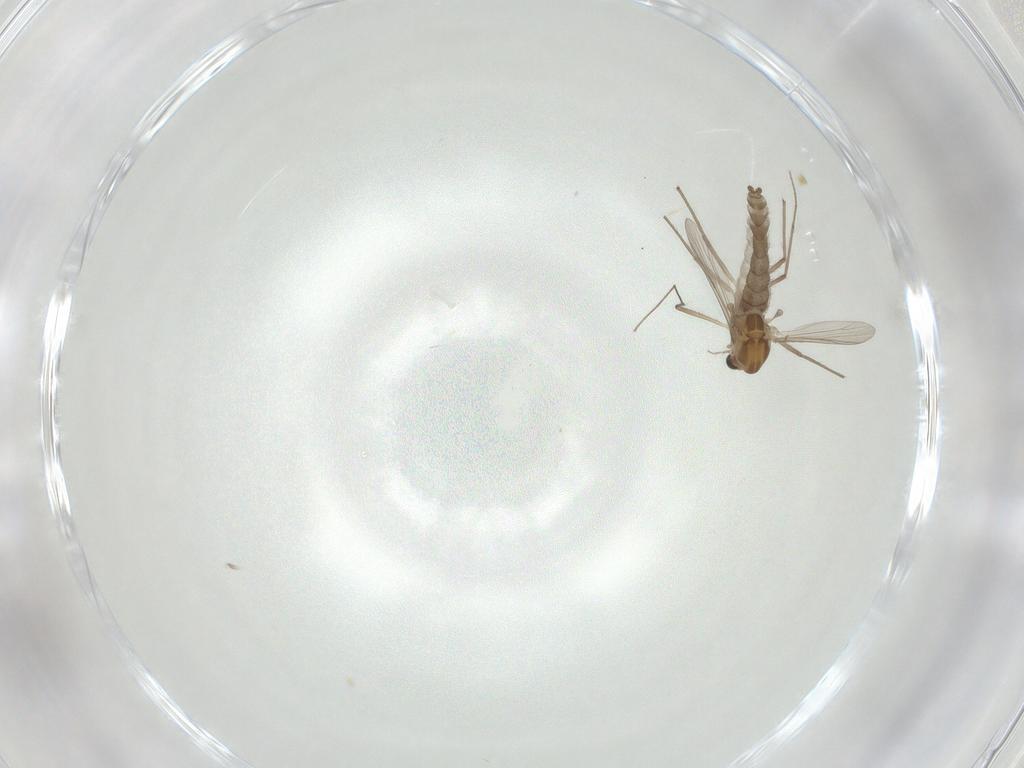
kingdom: Animalia
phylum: Arthropoda
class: Insecta
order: Diptera
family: Chironomidae
